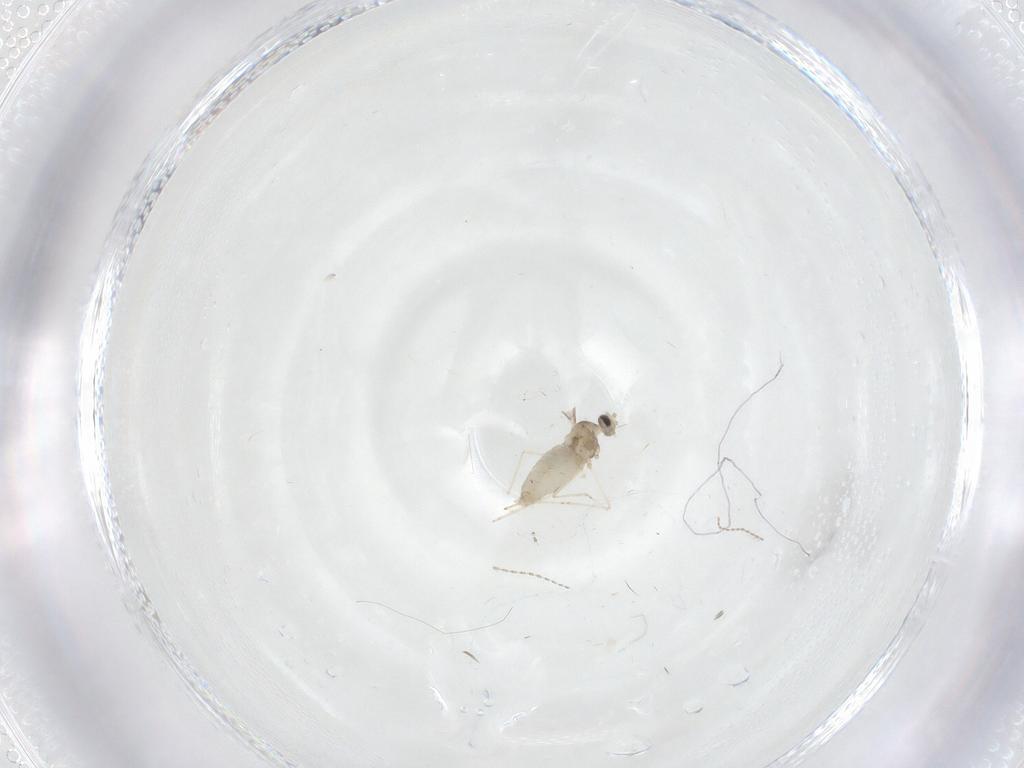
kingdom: Animalia
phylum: Arthropoda
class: Insecta
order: Diptera
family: Cecidomyiidae
